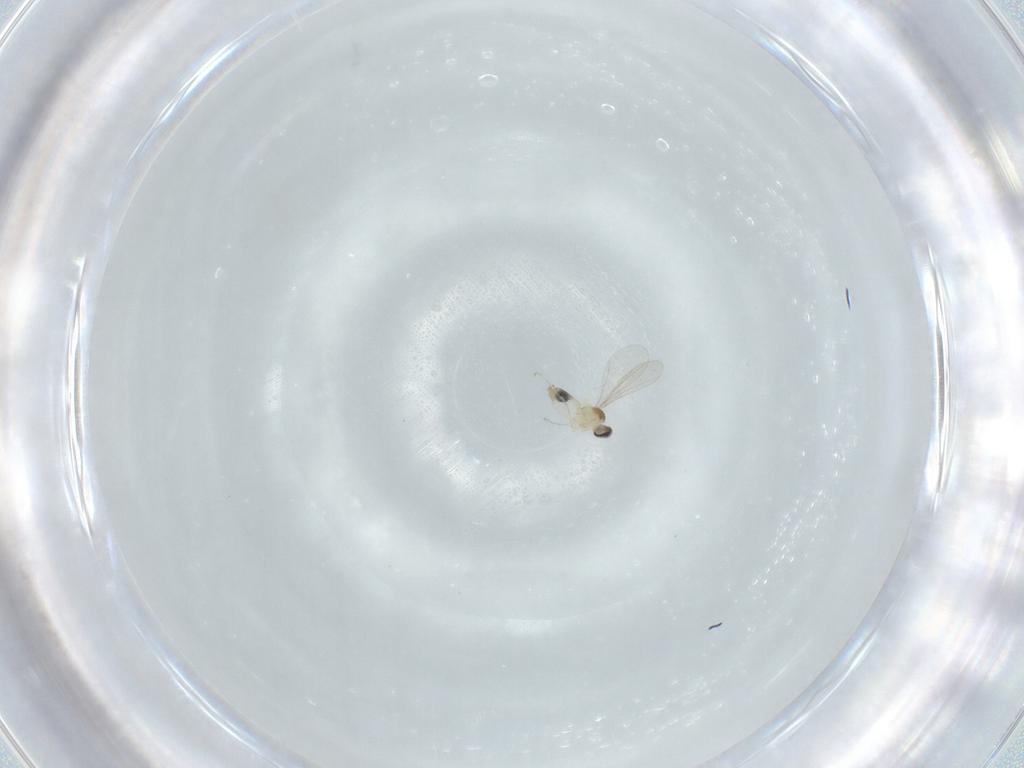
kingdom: Animalia
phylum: Arthropoda
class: Insecta
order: Diptera
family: Cecidomyiidae
